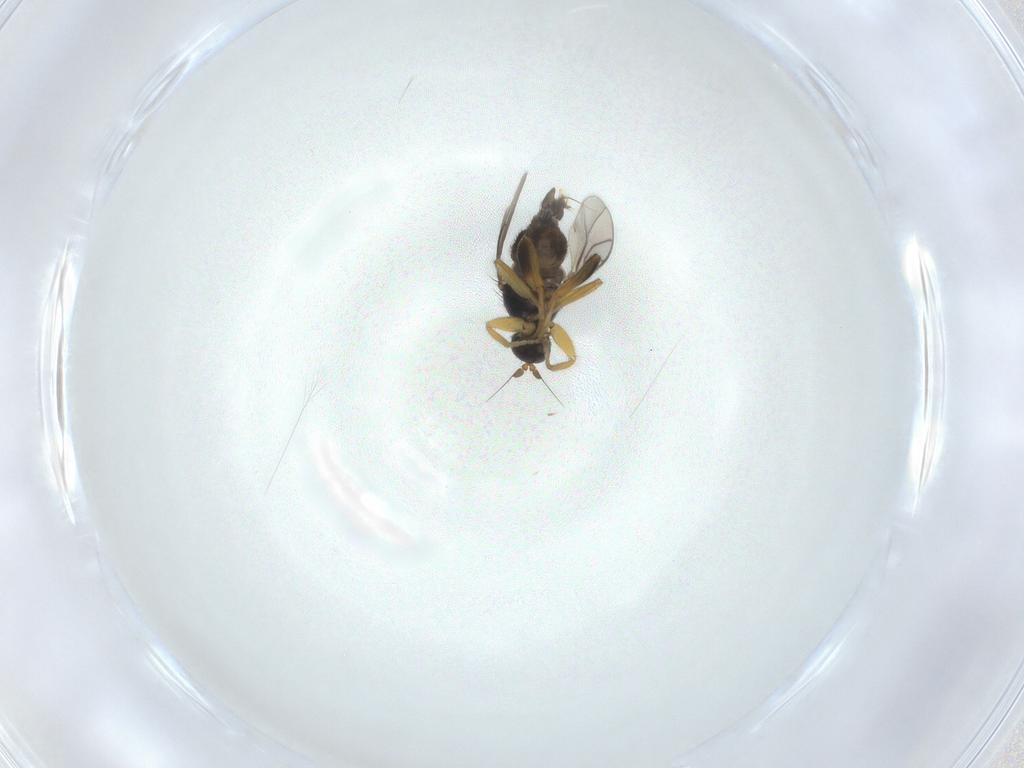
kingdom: Animalia
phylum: Arthropoda
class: Insecta
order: Diptera
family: Hybotidae
